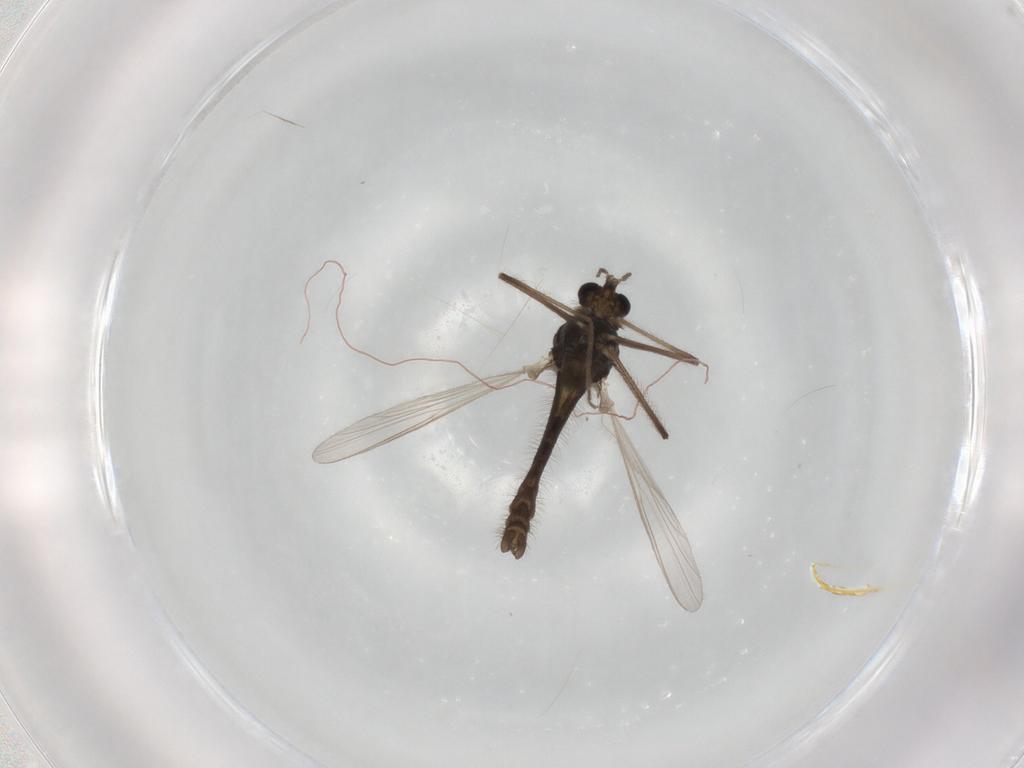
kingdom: Animalia
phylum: Arthropoda
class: Insecta
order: Diptera
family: Chironomidae
